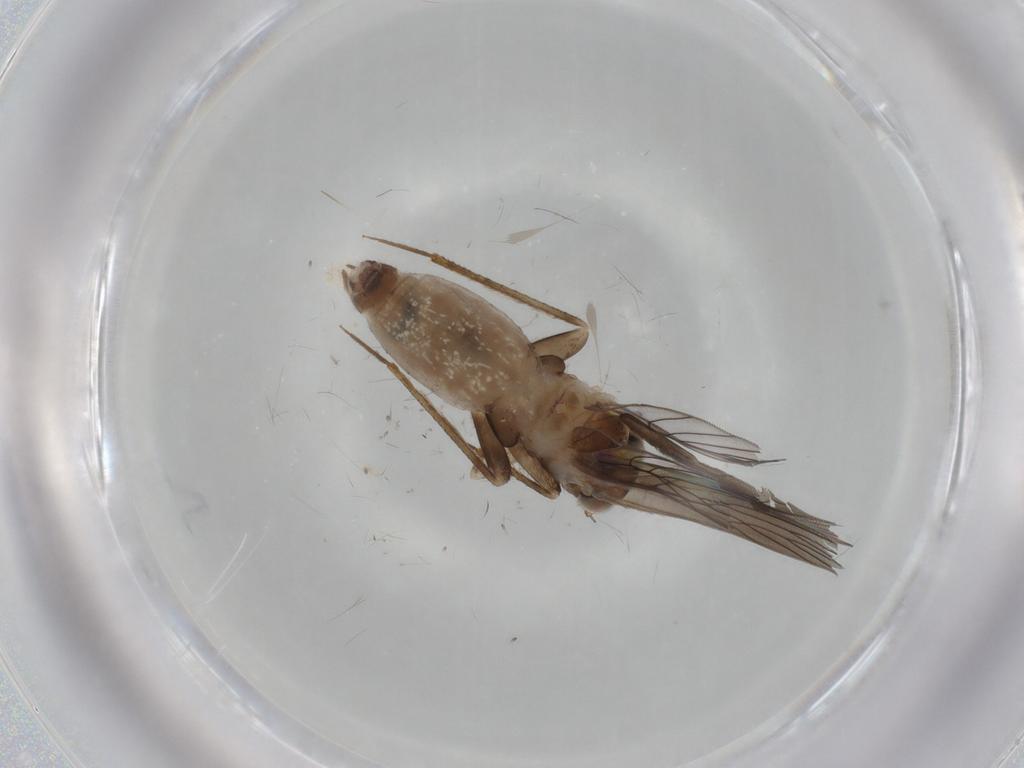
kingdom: Animalia
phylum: Arthropoda
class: Insecta
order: Psocodea
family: Lepidopsocidae
